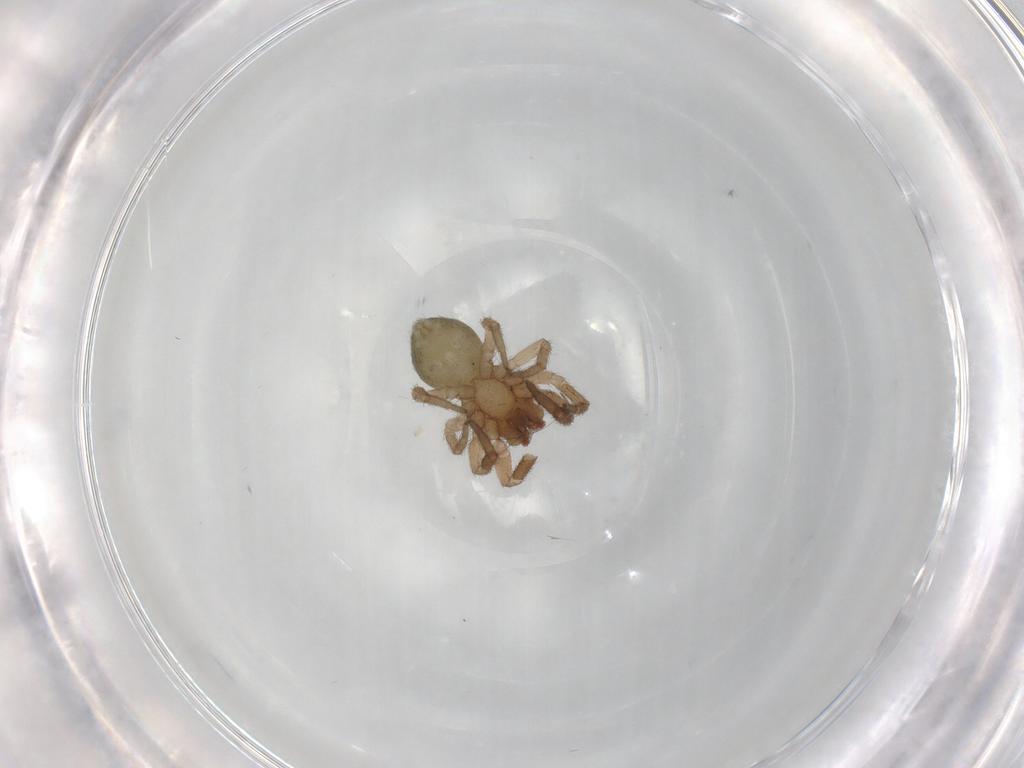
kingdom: Animalia
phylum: Arthropoda
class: Arachnida
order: Araneae
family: Anyphaenidae
